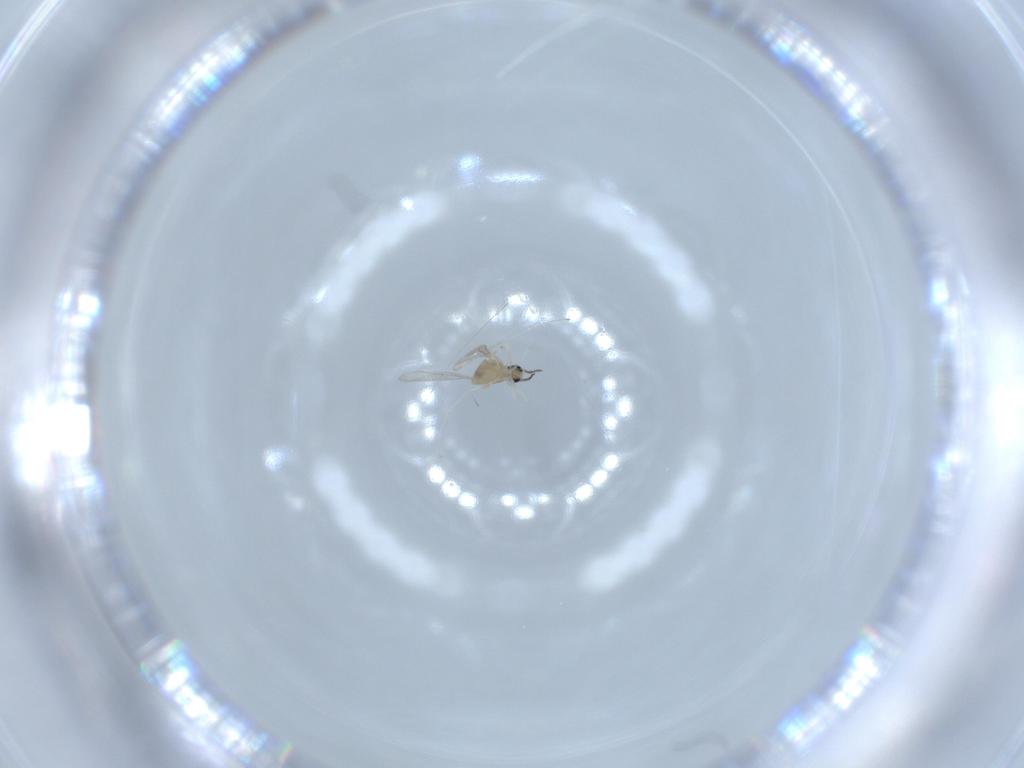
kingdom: Animalia
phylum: Arthropoda
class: Insecta
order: Diptera
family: Cecidomyiidae
